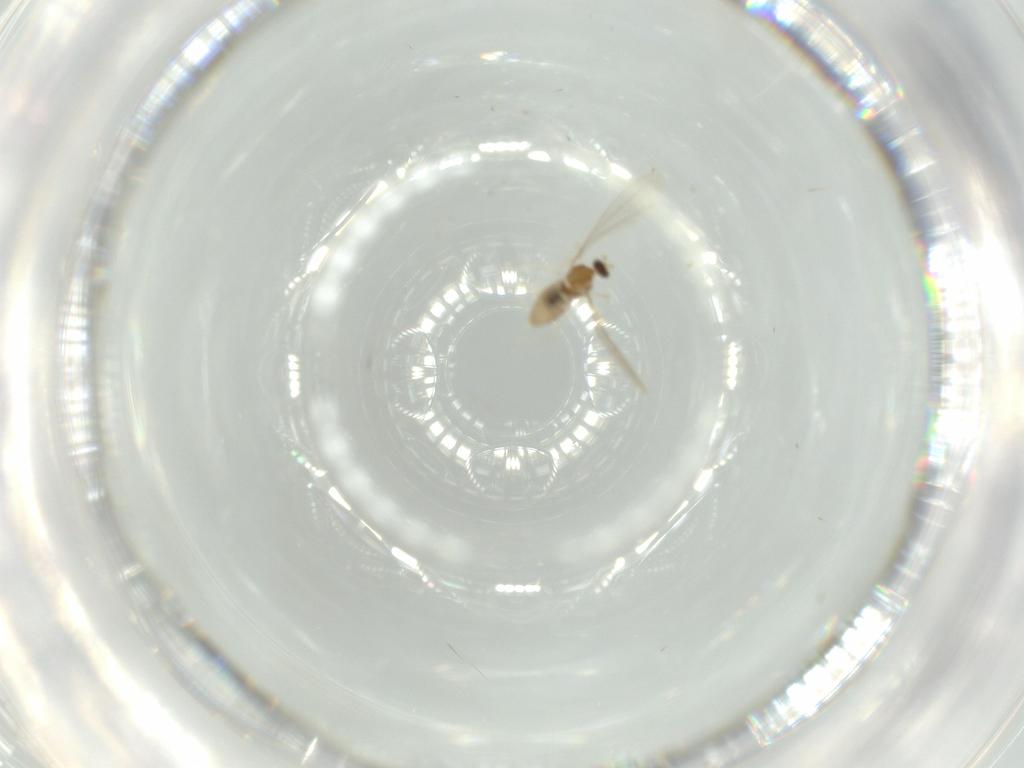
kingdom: Animalia
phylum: Arthropoda
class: Insecta
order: Diptera
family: Cecidomyiidae
